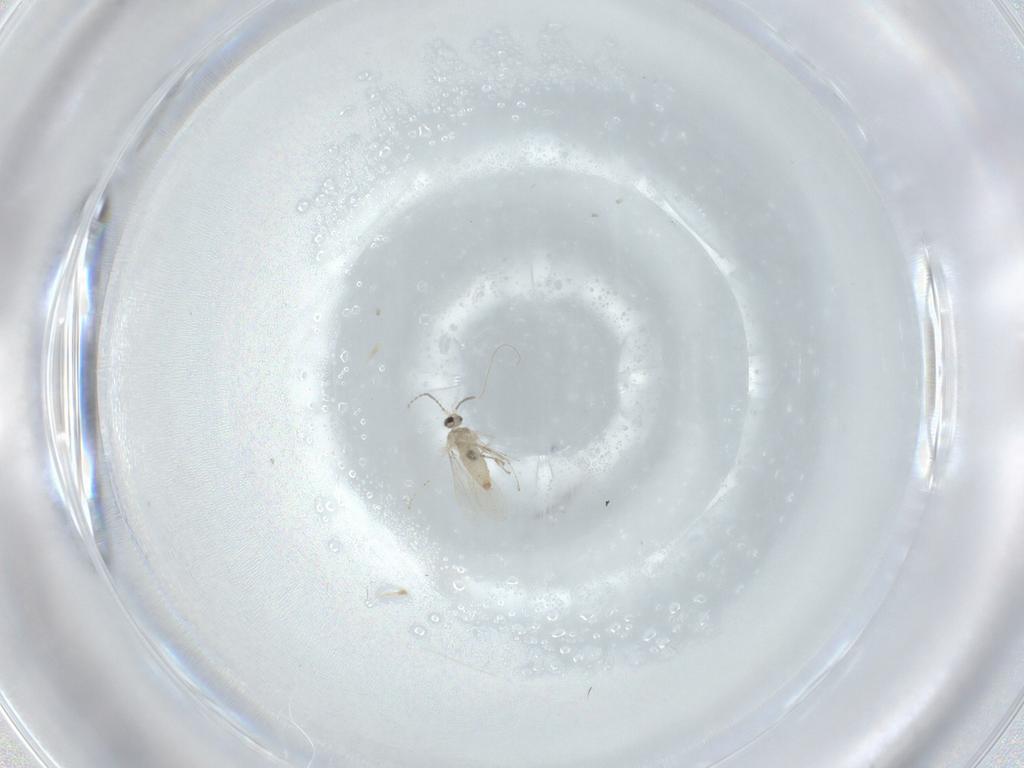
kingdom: Animalia
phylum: Arthropoda
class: Insecta
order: Diptera
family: Cecidomyiidae
